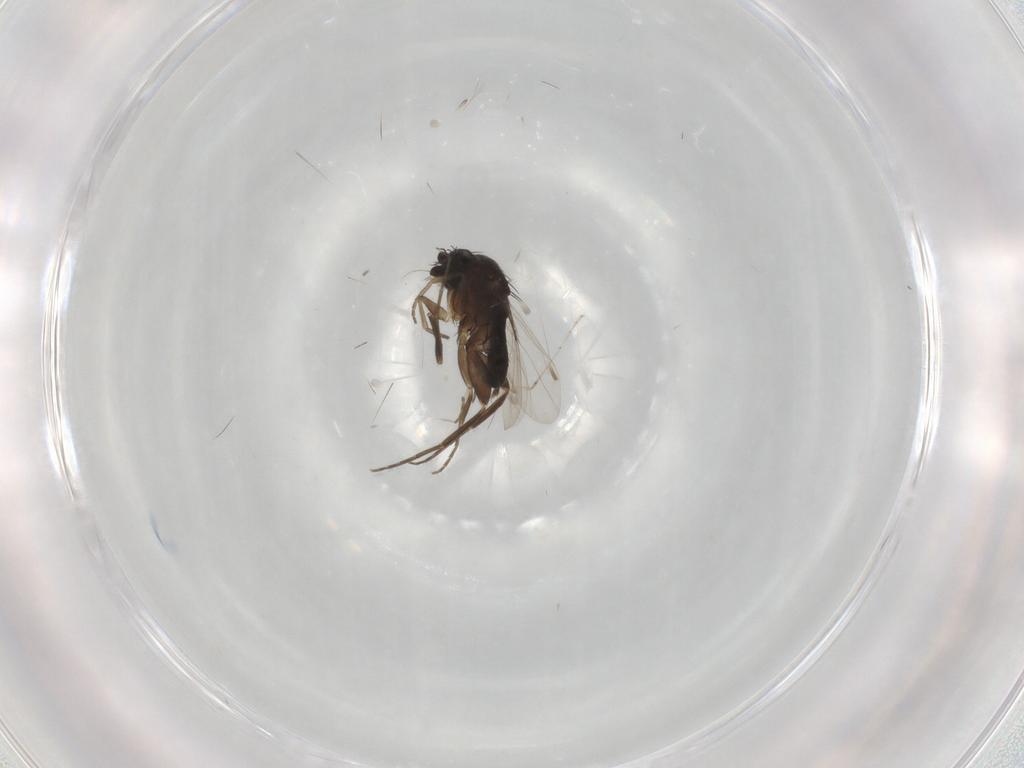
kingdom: Animalia
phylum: Arthropoda
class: Insecta
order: Diptera
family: Phoridae
